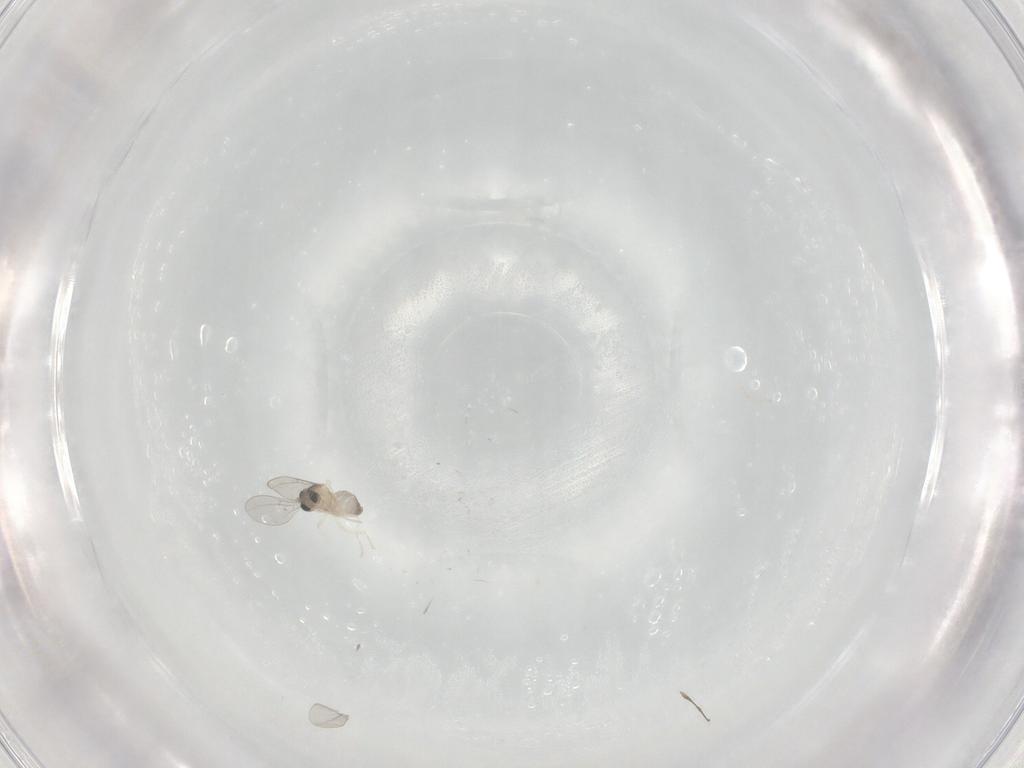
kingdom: Animalia
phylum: Arthropoda
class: Insecta
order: Diptera
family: Cecidomyiidae
